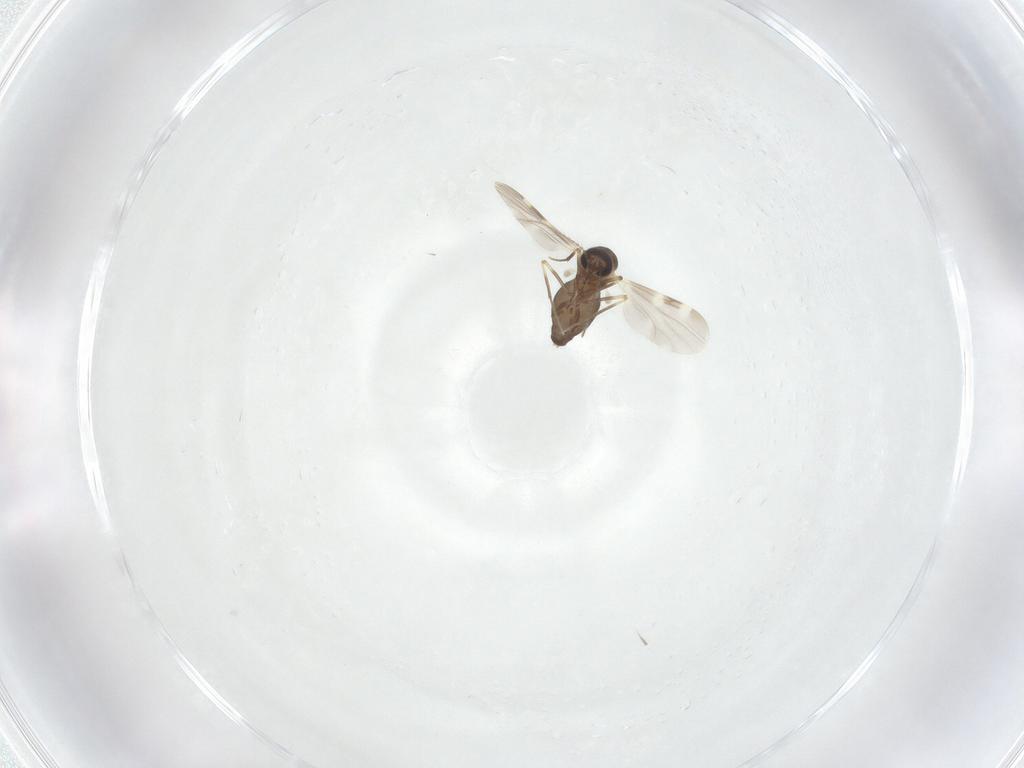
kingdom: Animalia
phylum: Arthropoda
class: Insecta
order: Diptera
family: Ceratopogonidae
